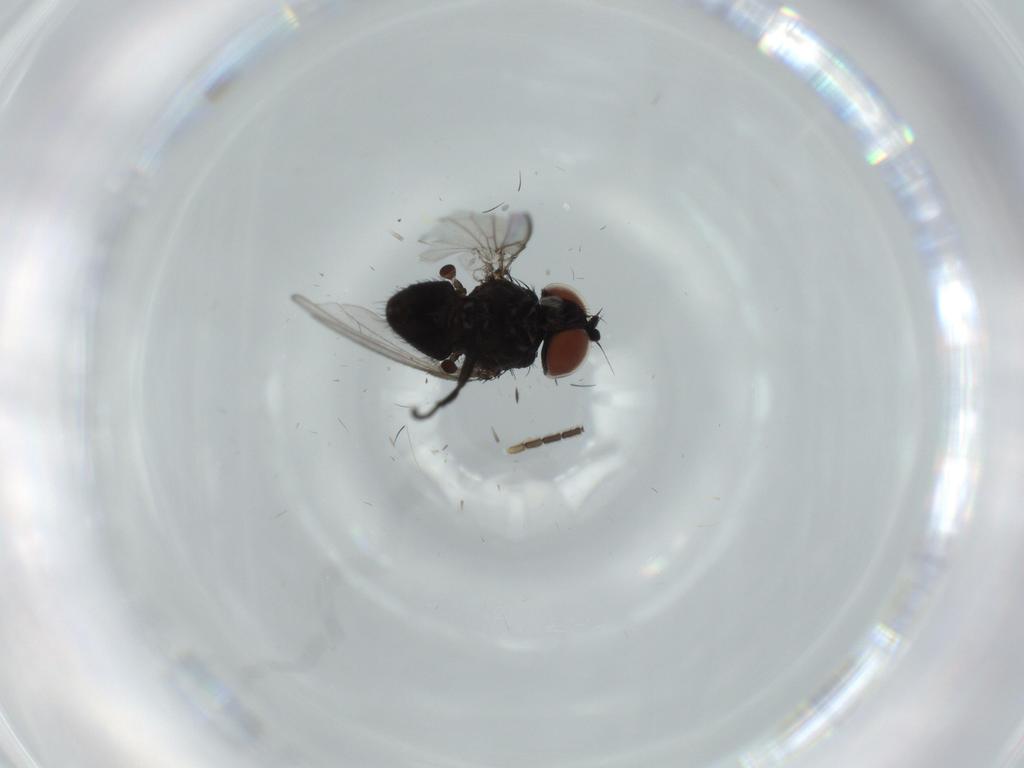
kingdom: Animalia
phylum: Arthropoda
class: Insecta
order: Diptera
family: Milichiidae
